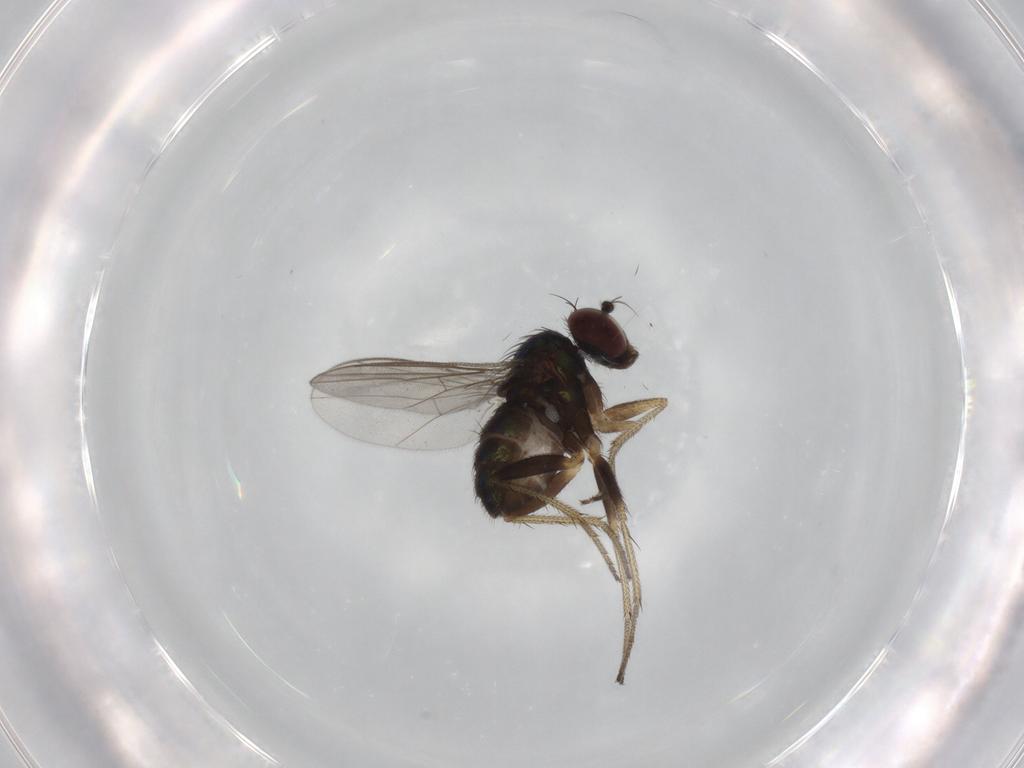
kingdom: Animalia
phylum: Arthropoda
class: Insecta
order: Diptera
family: Dolichopodidae
